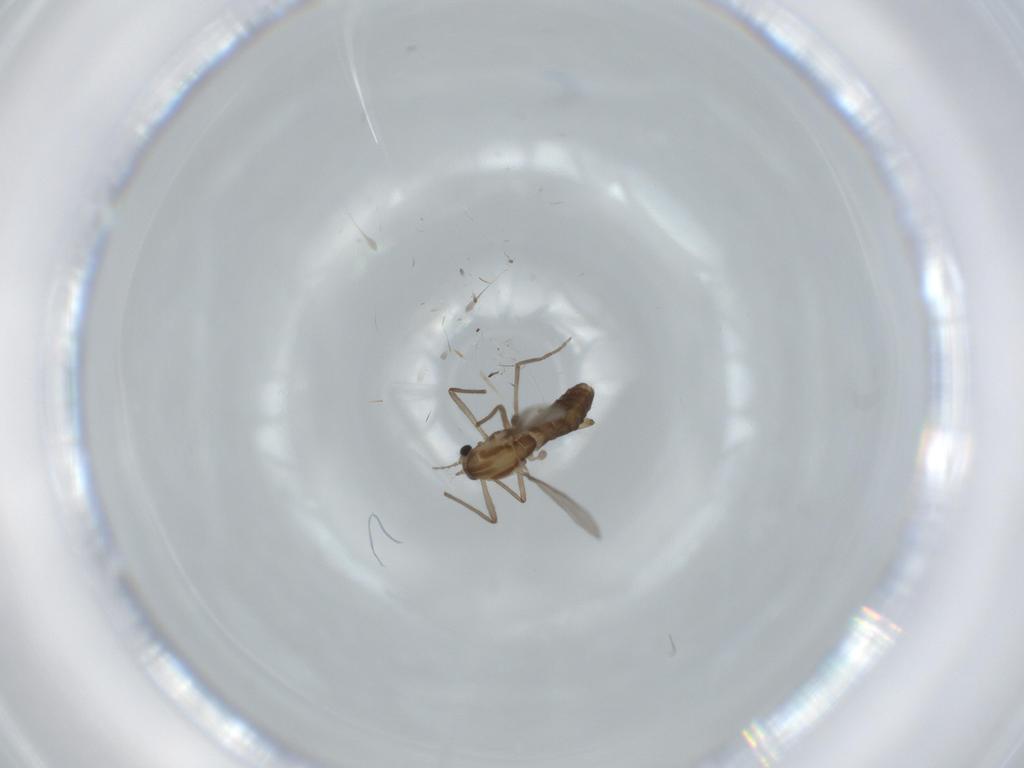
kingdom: Animalia
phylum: Arthropoda
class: Insecta
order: Diptera
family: Chironomidae
